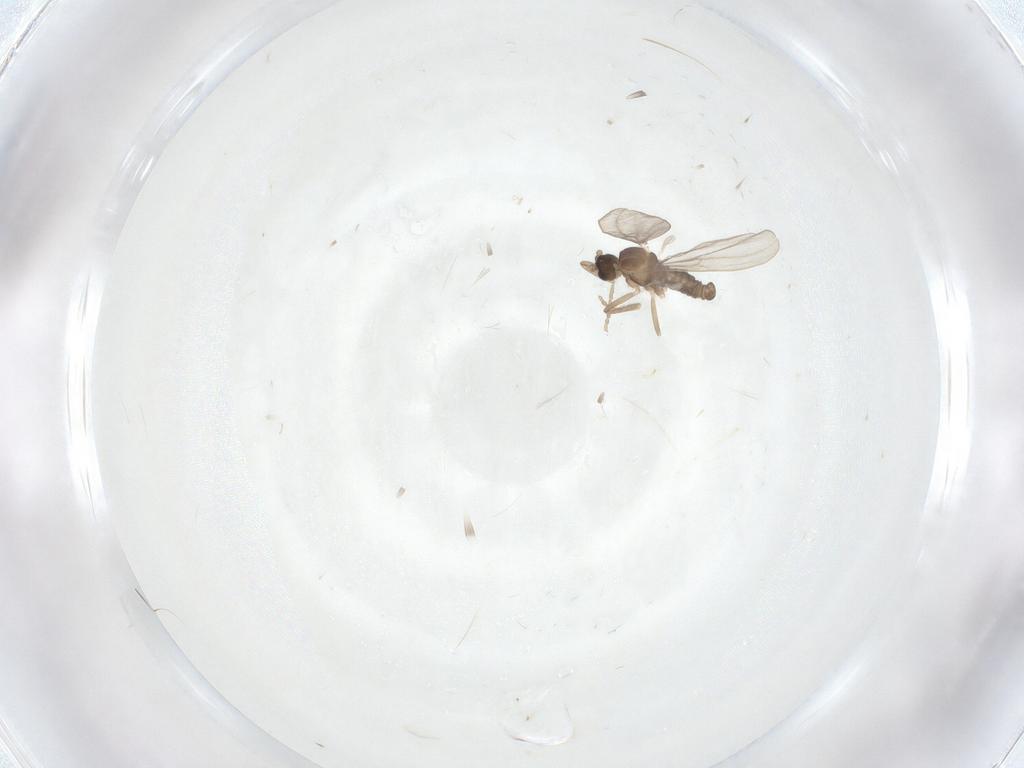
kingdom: Animalia
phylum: Arthropoda
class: Insecta
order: Diptera
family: Cecidomyiidae
